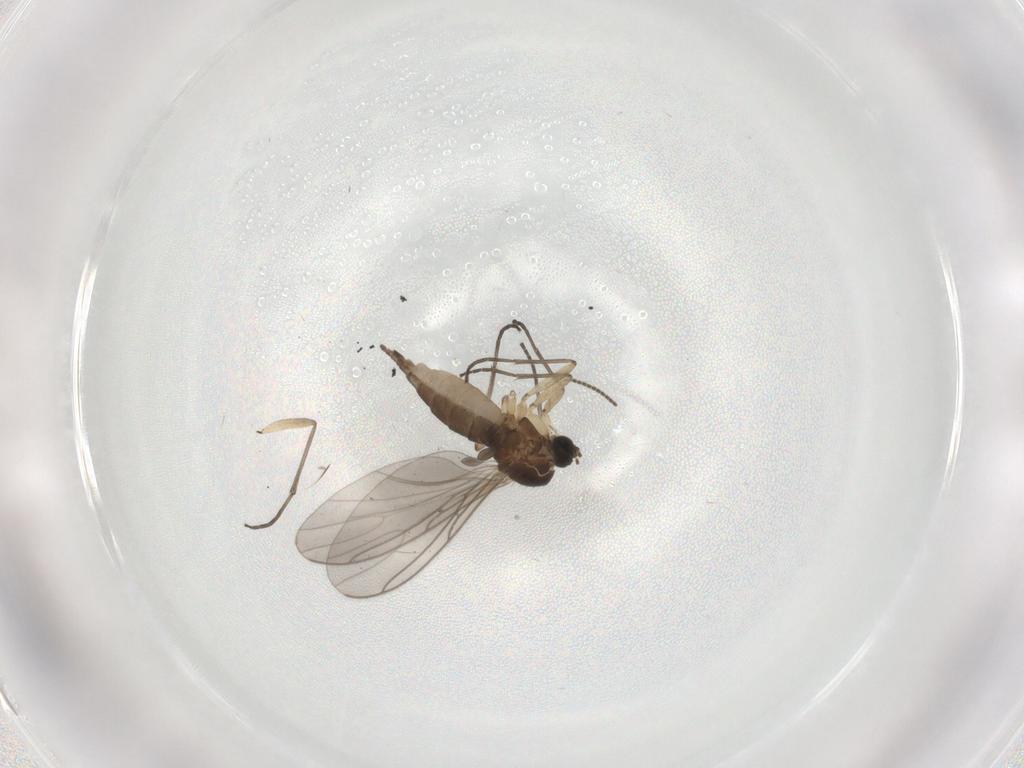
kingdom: Animalia
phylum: Arthropoda
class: Insecta
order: Diptera
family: Sciaridae
